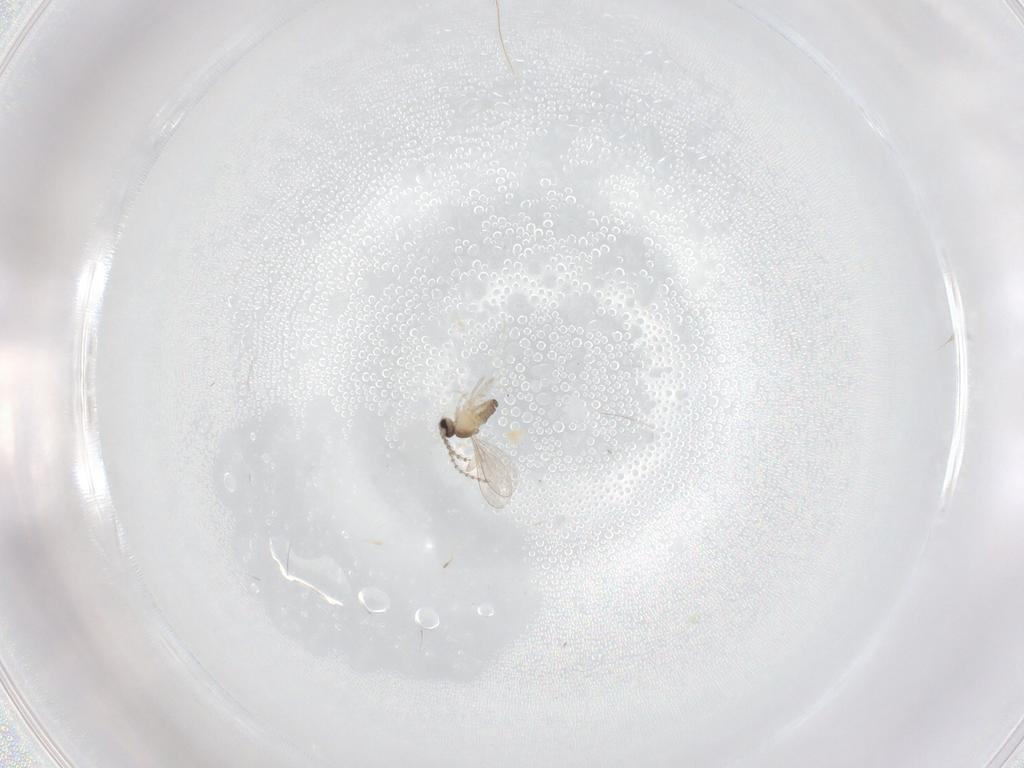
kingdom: Animalia
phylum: Arthropoda
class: Insecta
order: Diptera
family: Cecidomyiidae
